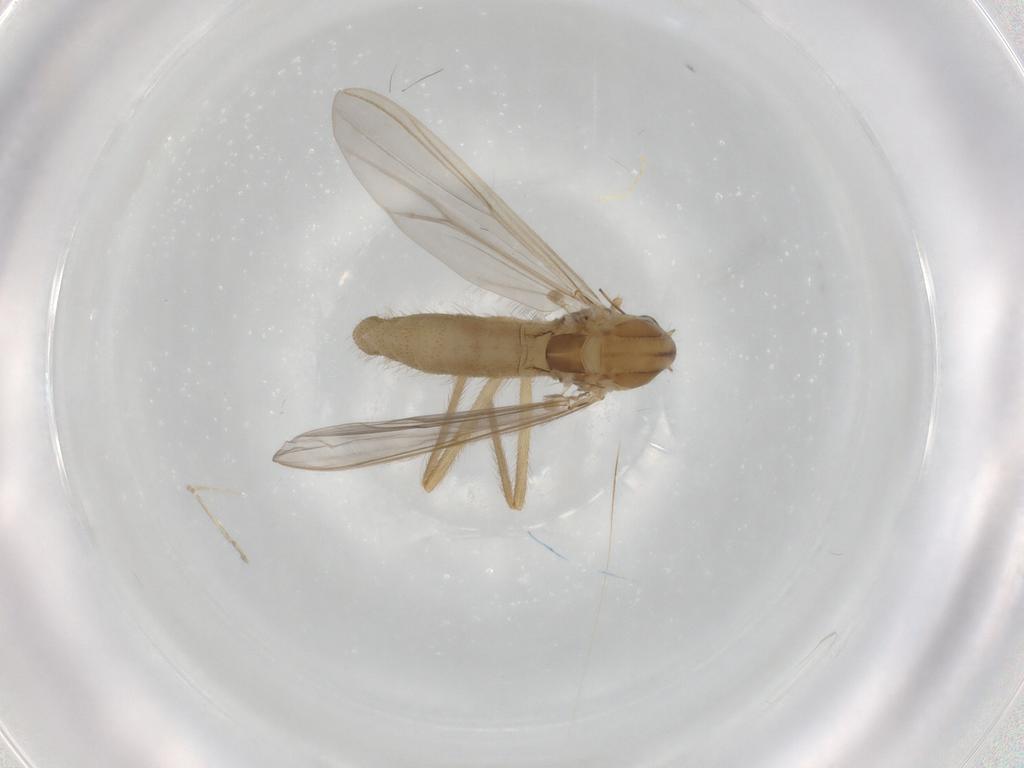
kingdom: Animalia
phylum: Arthropoda
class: Insecta
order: Diptera
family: Chironomidae
